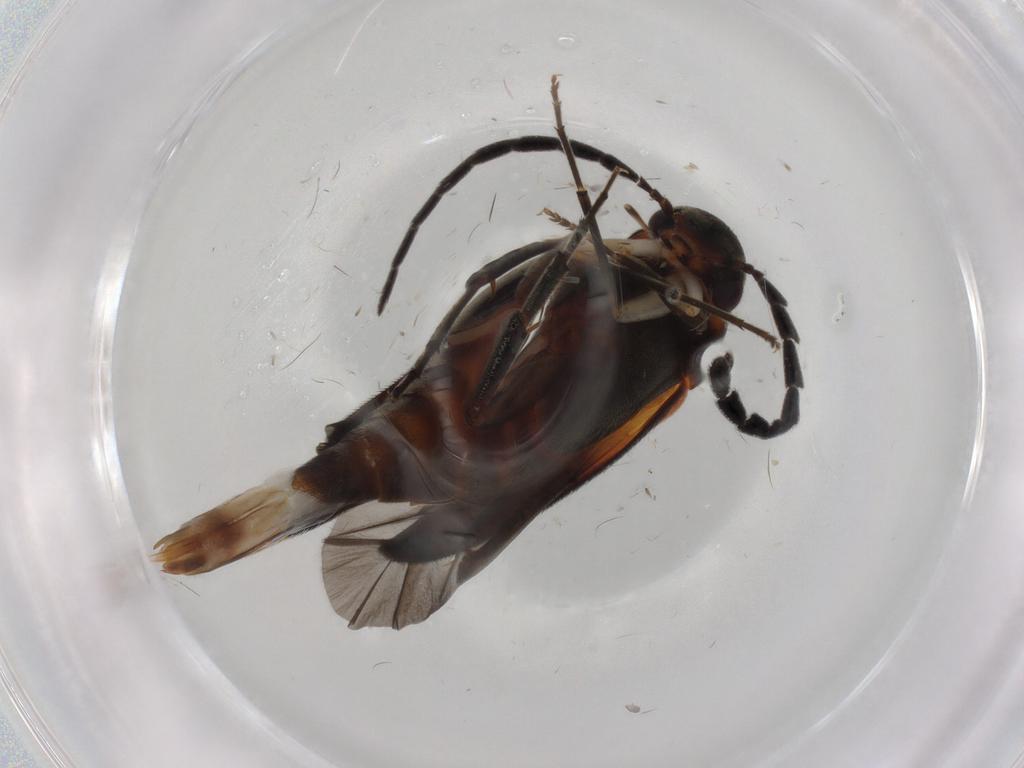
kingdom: Animalia
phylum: Arthropoda
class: Insecta
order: Coleoptera
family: Mordellidae
